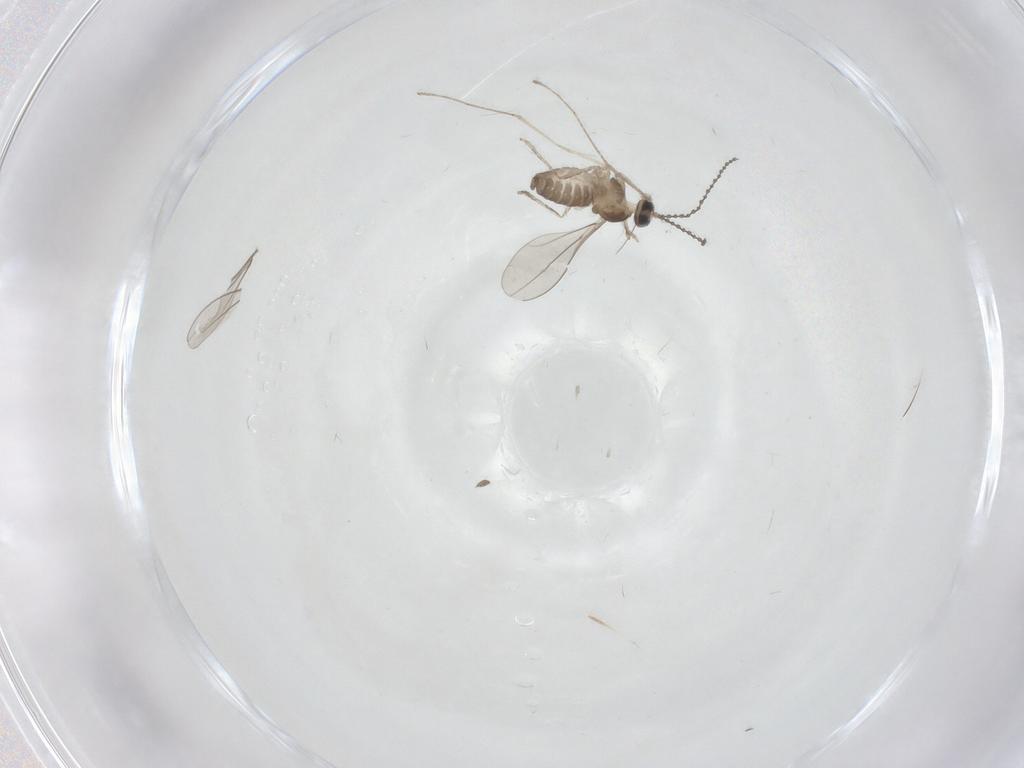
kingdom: Animalia
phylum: Arthropoda
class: Insecta
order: Diptera
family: Cecidomyiidae
